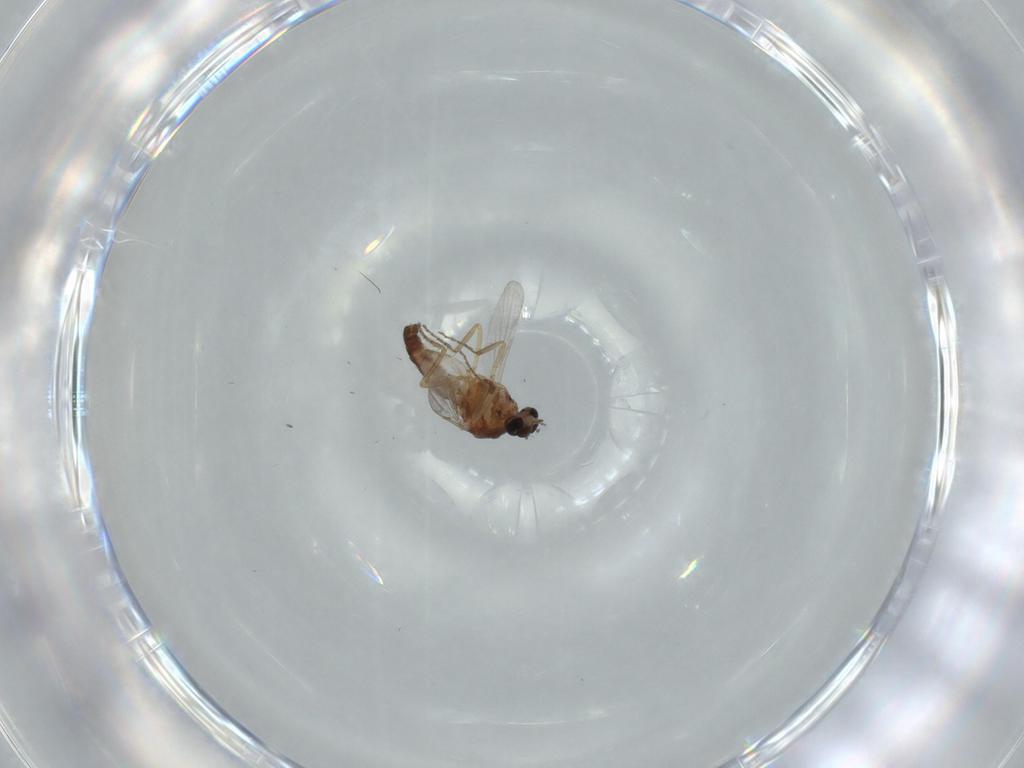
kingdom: Animalia
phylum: Arthropoda
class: Insecta
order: Diptera
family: Ceratopogonidae
